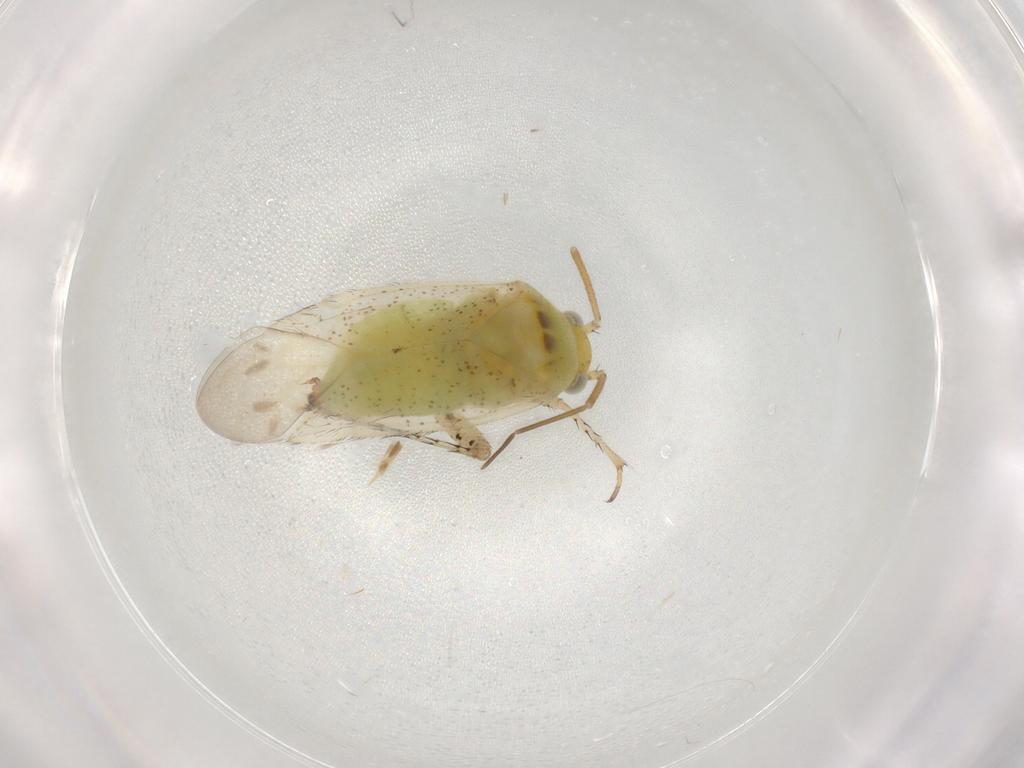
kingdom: Animalia
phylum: Arthropoda
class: Insecta
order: Hemiptera
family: Miridae
